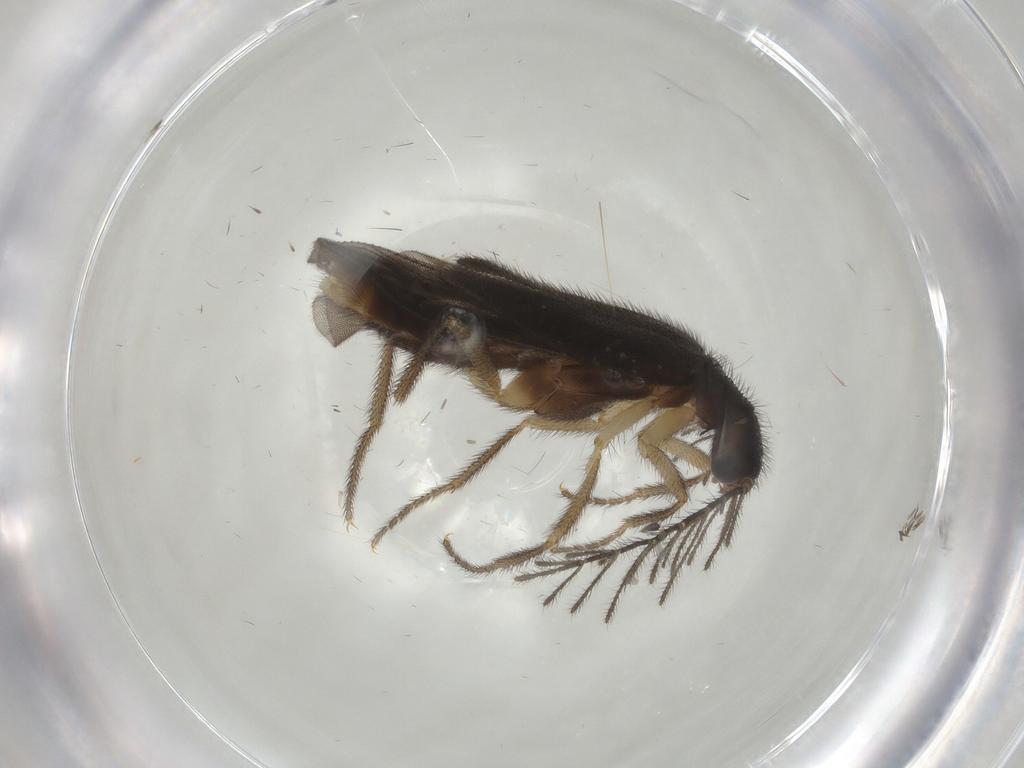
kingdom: Animalia
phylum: Arthropoda
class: Insecta
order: Coleoptera
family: Phengodidae
